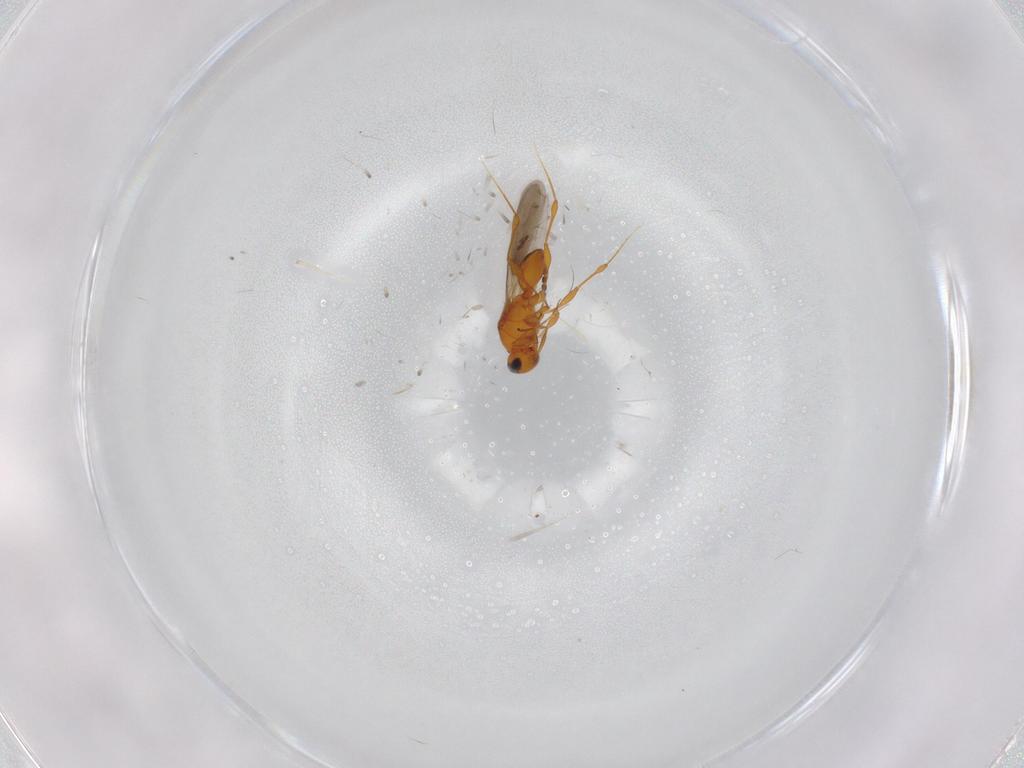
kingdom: Animalia
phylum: Arthropoda
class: Insecta
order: Hymenoptera
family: Platygastridae
